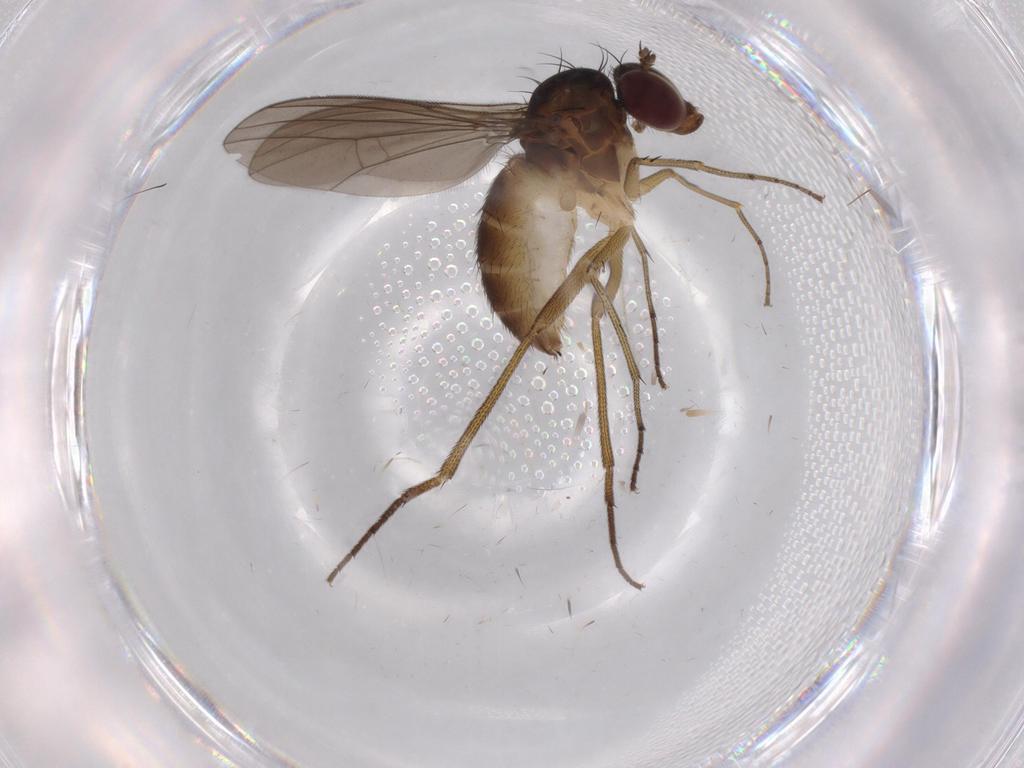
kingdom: Animalia
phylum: Arthropoda
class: Insecta
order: Diptera
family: Dolichopodidae
